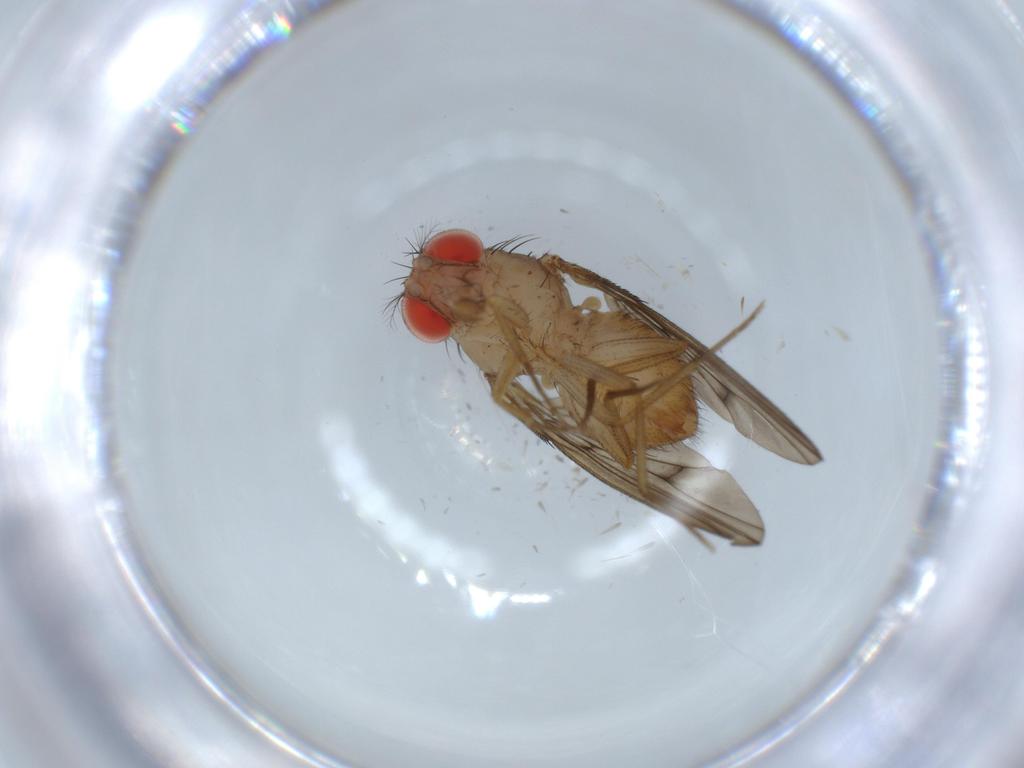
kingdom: Animalia
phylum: Arthropoda
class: Insecta
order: Diptera
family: Drosophilidae
